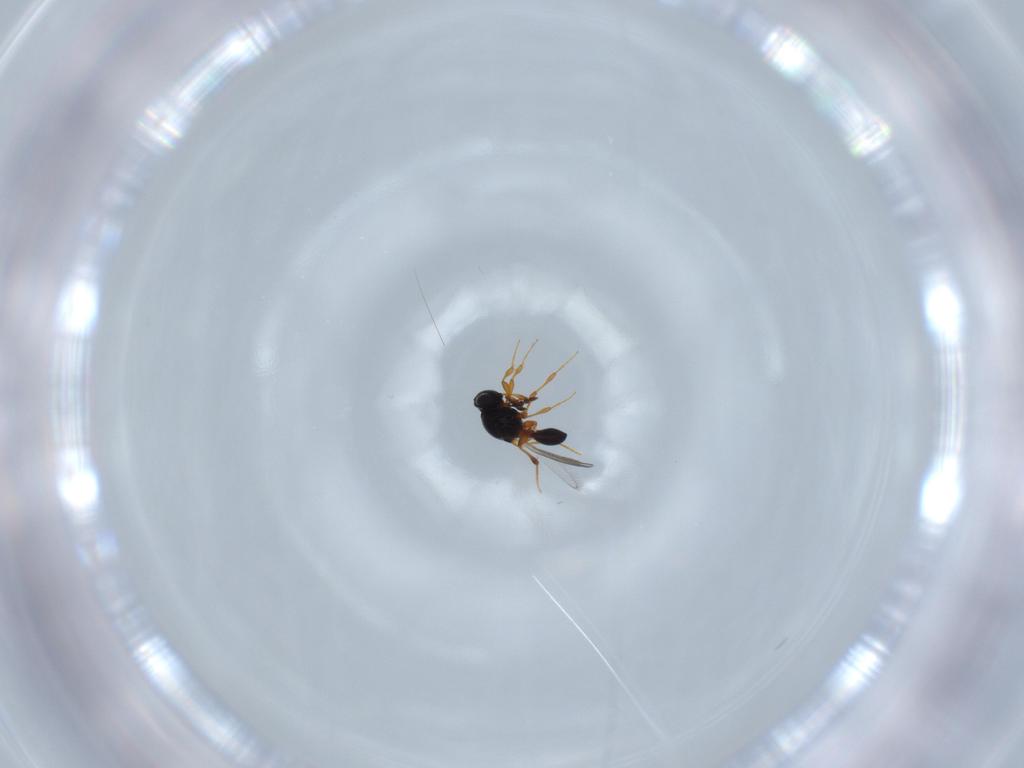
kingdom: Animalia
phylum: Arthropoda
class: Insecta
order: Hymenoptera
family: Platygastridae
